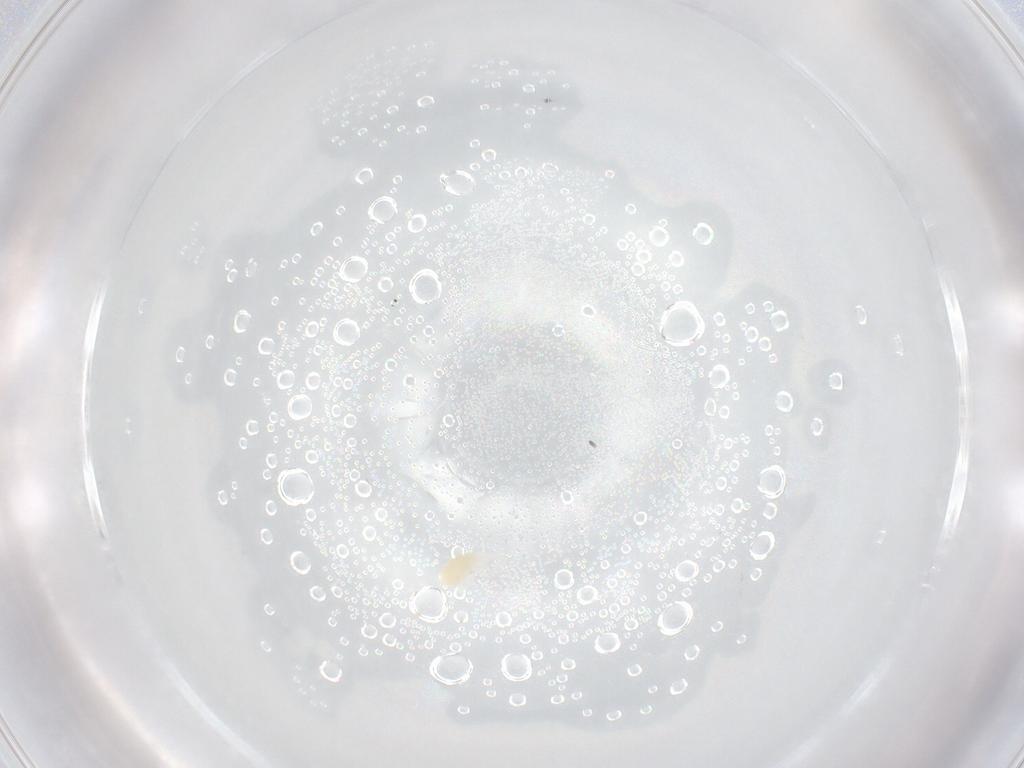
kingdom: Animalia
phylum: Arthropoda
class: Arachnida
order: Trombidiformes
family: Eupodidae
